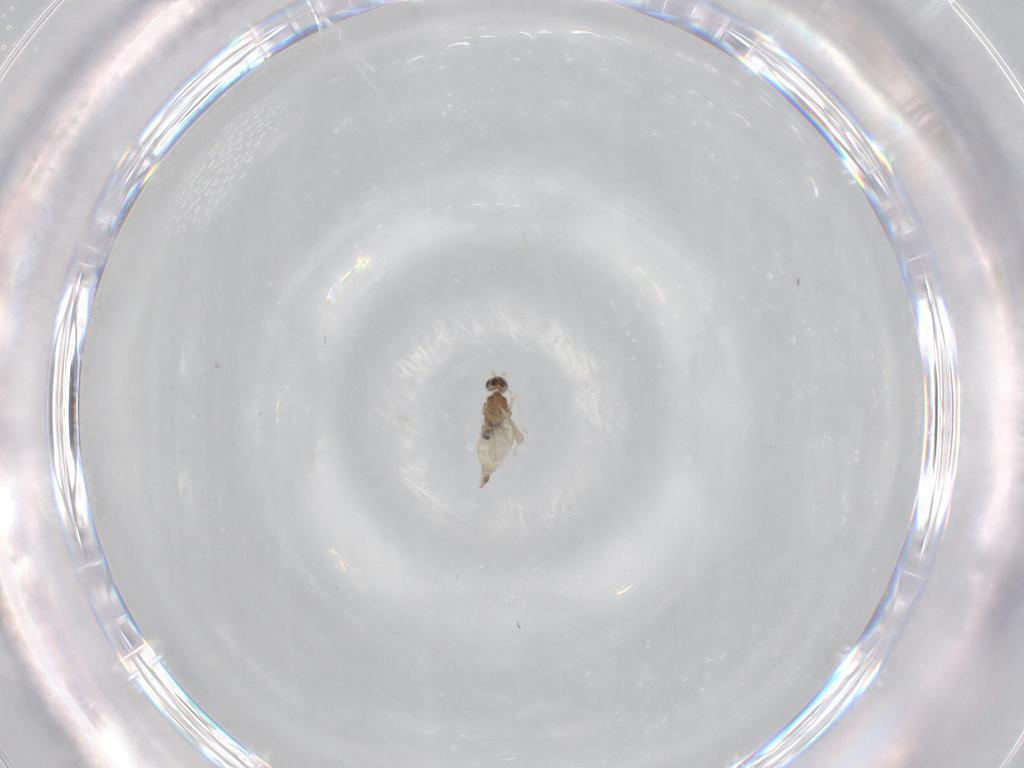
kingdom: Animalia
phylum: Arthropoda
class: Insecta
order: Diptera
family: Cecidomyiidae
